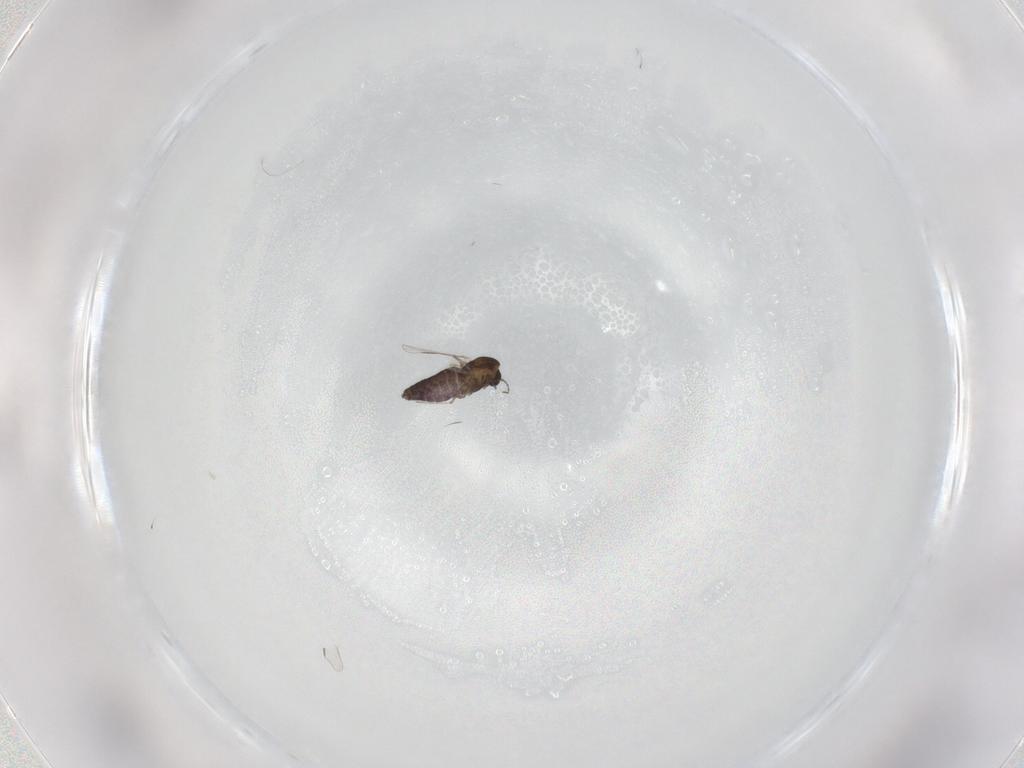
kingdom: Animalia
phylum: Arthropoda
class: Insecta
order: Diptera
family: Chironomidae
